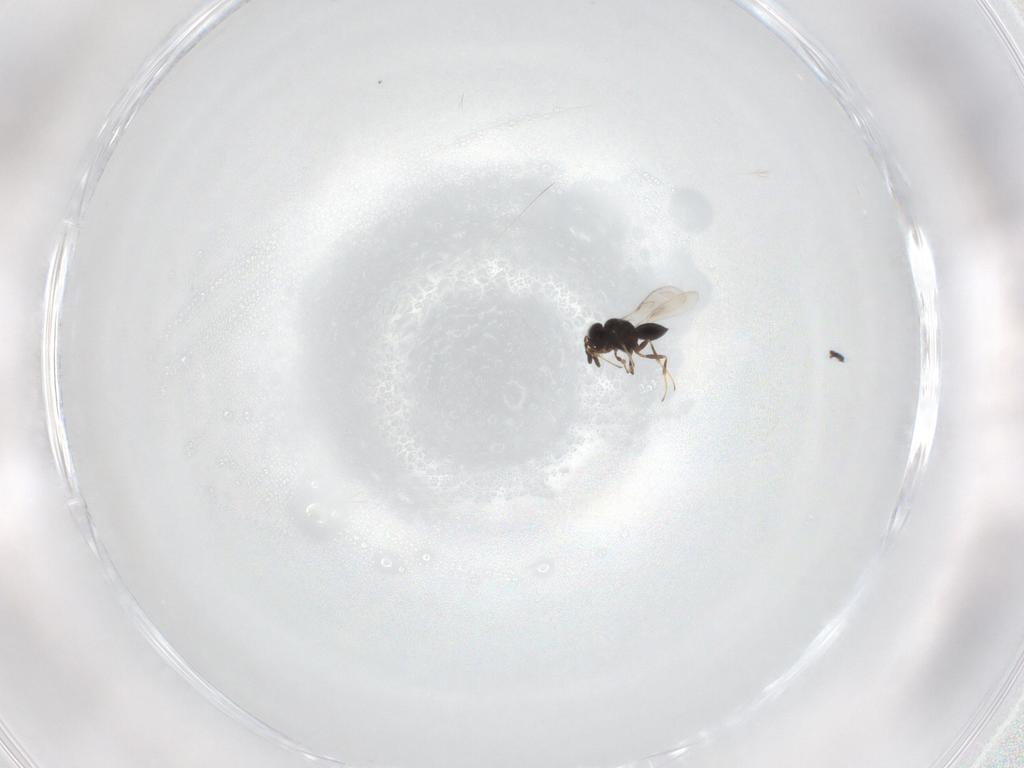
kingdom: Animalia
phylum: Arthropoda
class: Insecta
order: Hymenoptera
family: Scelionidae
